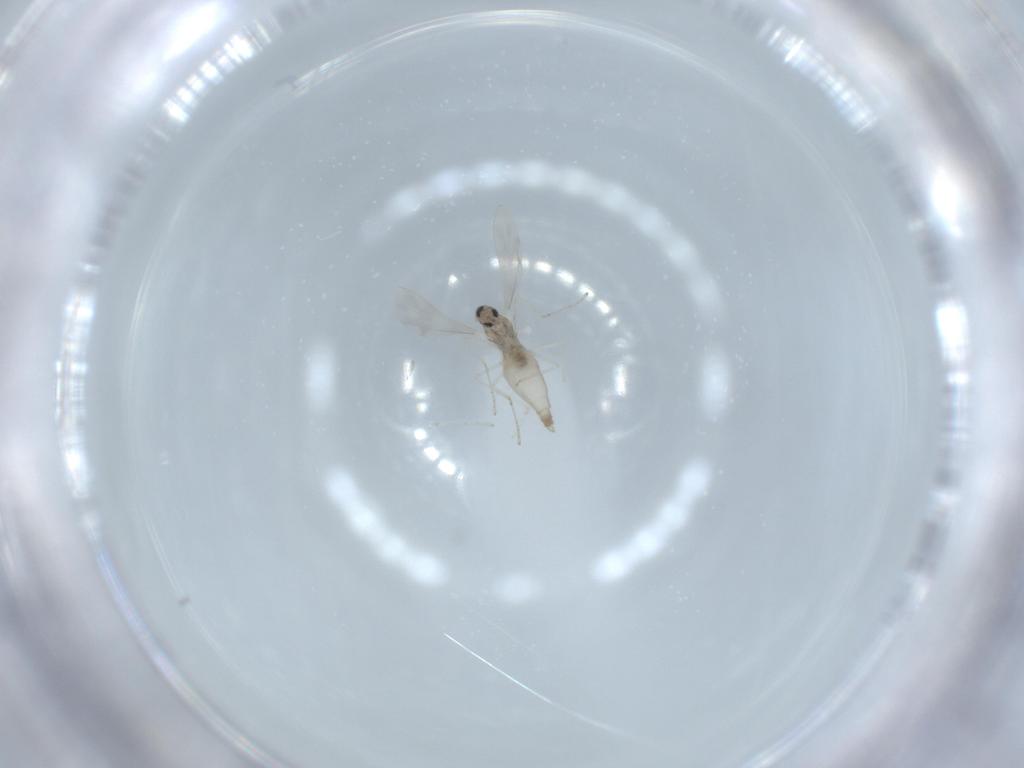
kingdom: Animalia
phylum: Arthropoda
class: Insecta
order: Diptera
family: Cecidomyiidae
